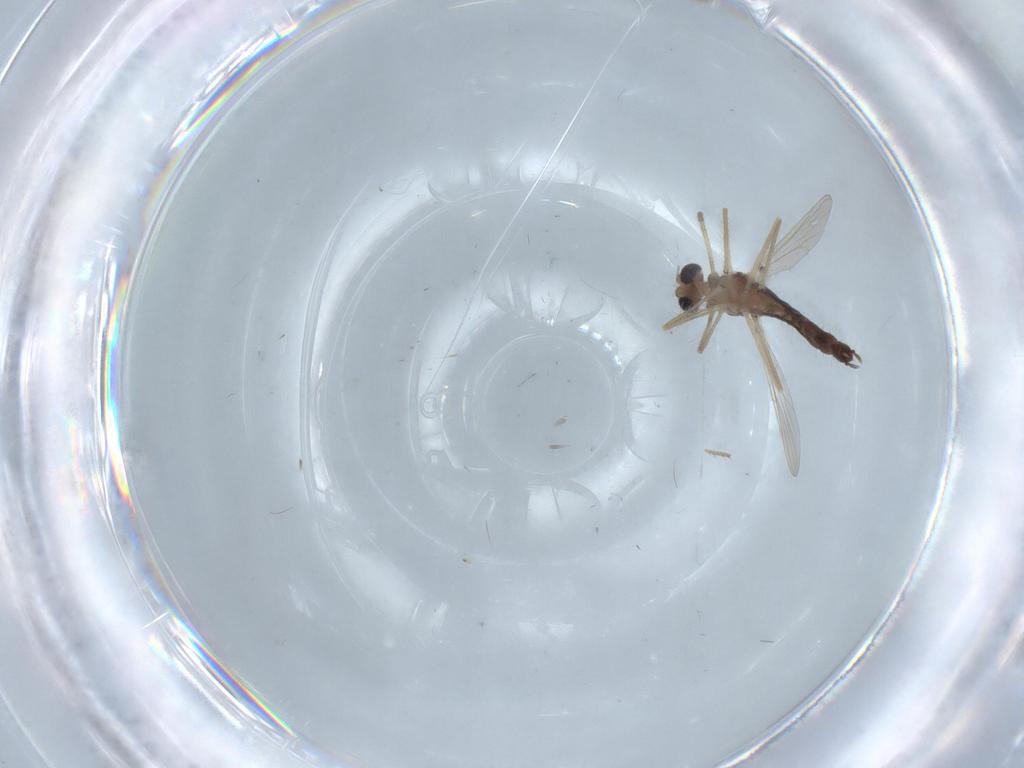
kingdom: Animalia
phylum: Arthropoda
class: Insecta
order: Diptera
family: Chironomidae
